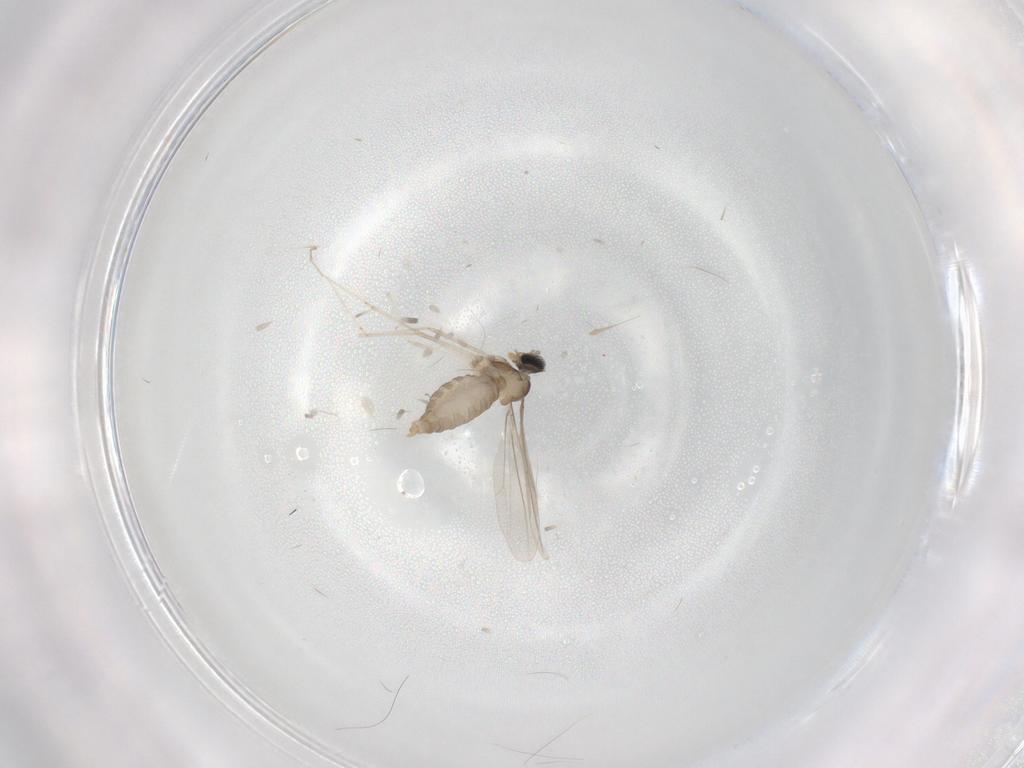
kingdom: Animalia
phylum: Arthropoda
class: Insecta
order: Diptera
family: Cecidomyiidae
